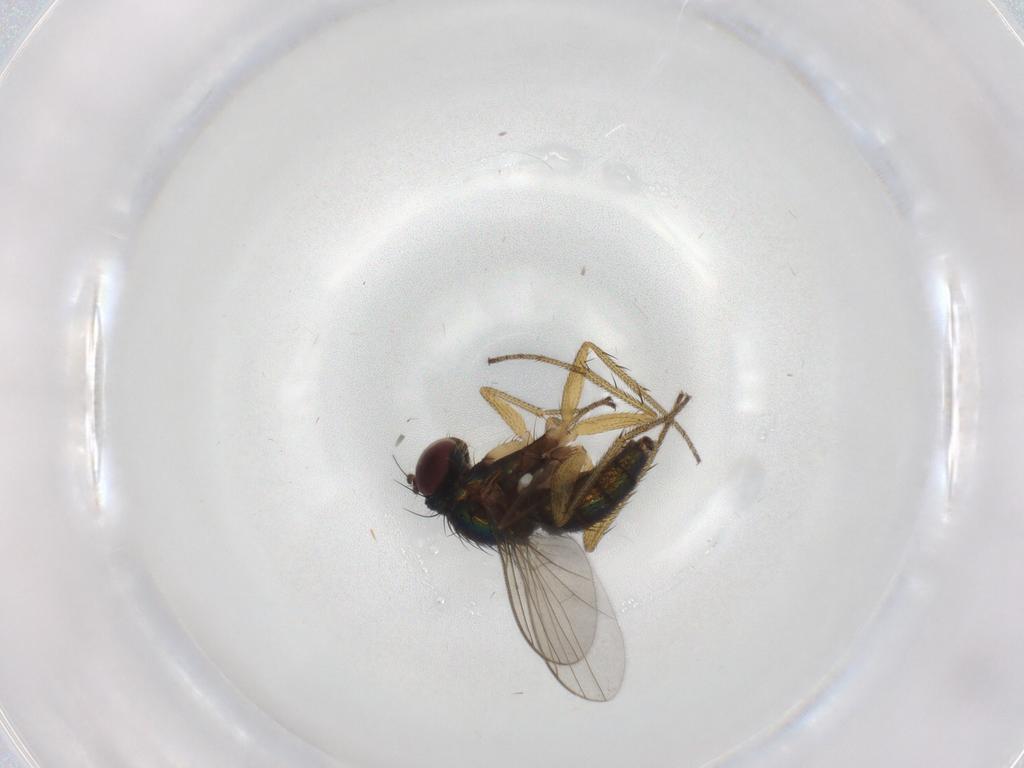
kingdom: Animalia
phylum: Arthropoda
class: Insecta
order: Diptera
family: Dolichopodidae
